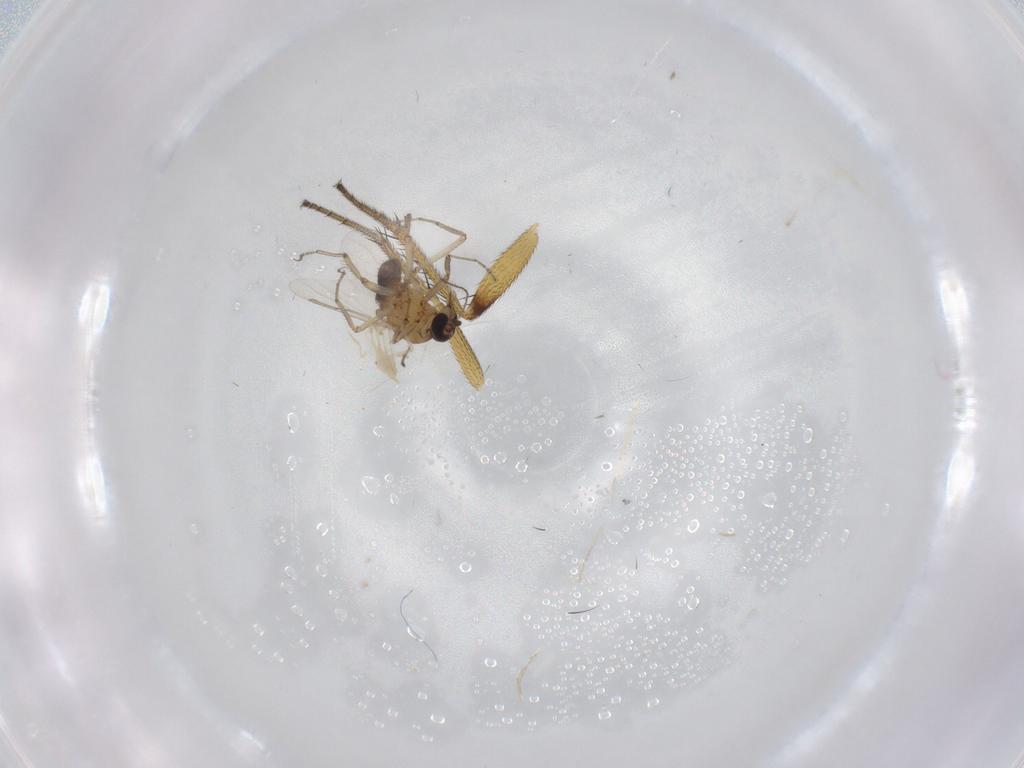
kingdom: Animalia
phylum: Arthropoda
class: Insecta
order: Diptera
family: Ceratopogonidae
